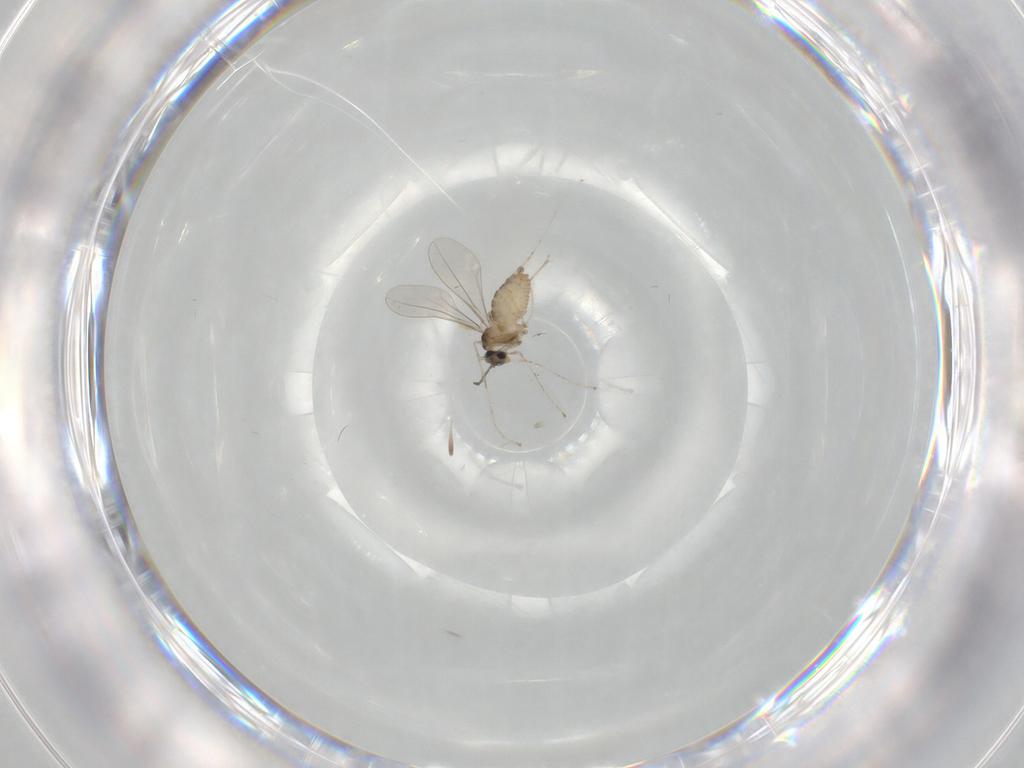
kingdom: Animalia
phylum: Arthropoda
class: Insecta
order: Diptera
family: Cecidomyiidae
